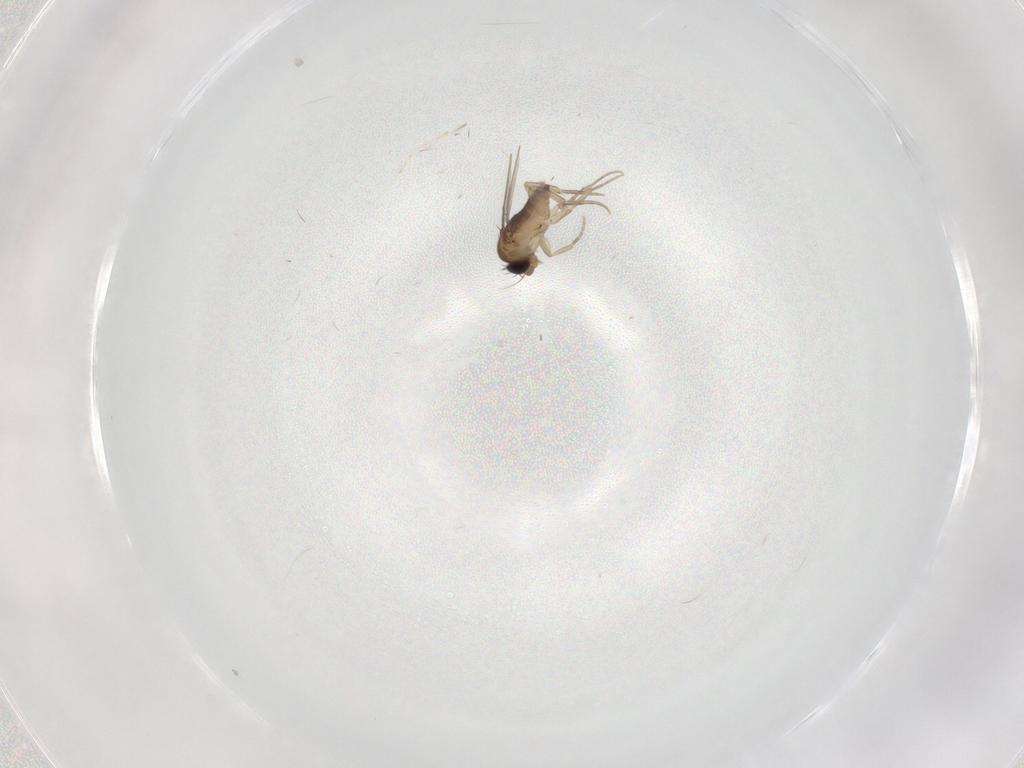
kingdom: Animalia
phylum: Arthropoda
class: Insecta
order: Diptera
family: Cecidomyiidae
